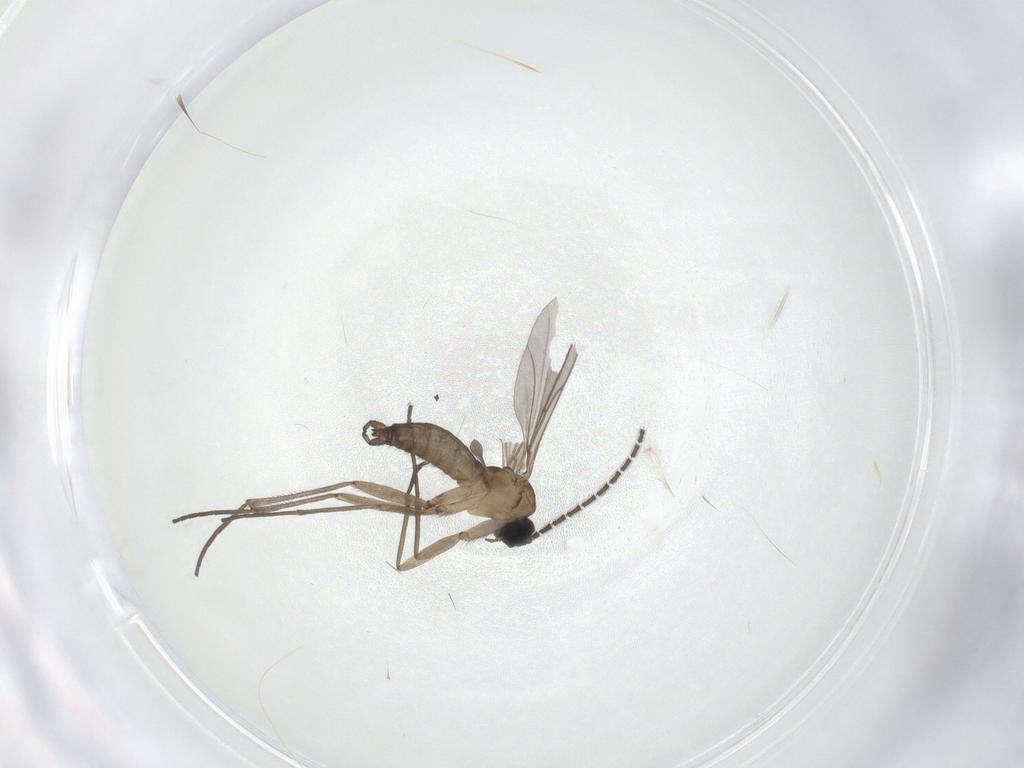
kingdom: Animalia
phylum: Arthropoda
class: Insecta
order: Diptera
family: Sciaridae
